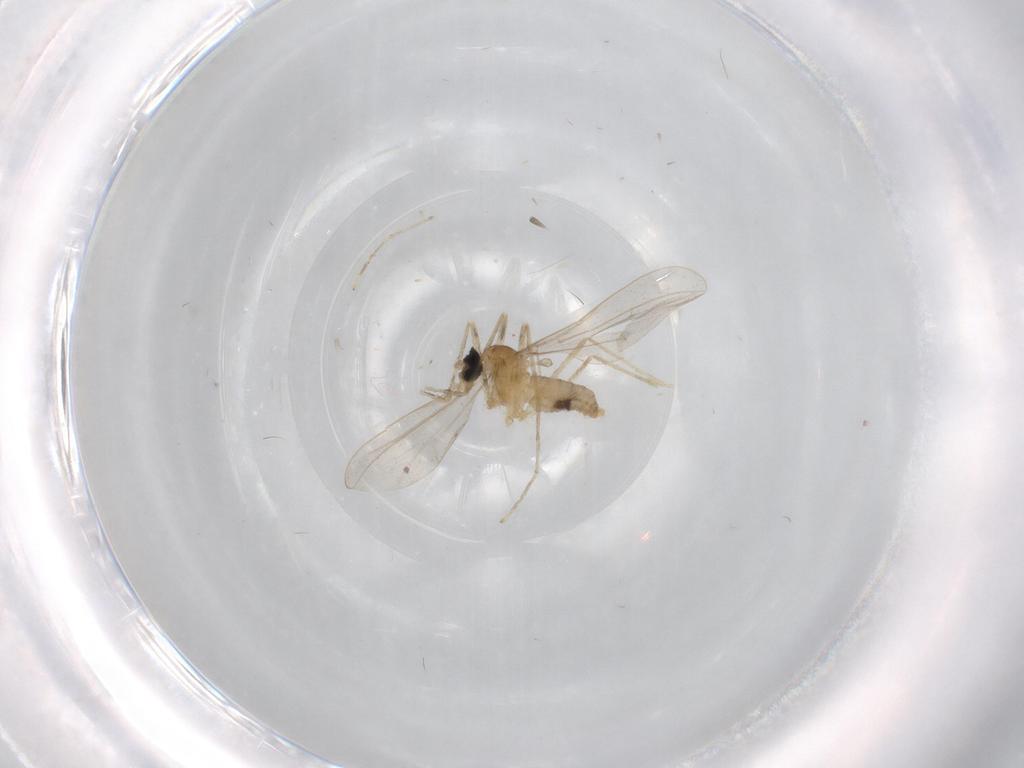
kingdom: Animalia
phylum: Arthropoda
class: Insecta
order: Diptera
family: Cecidomyiidae
